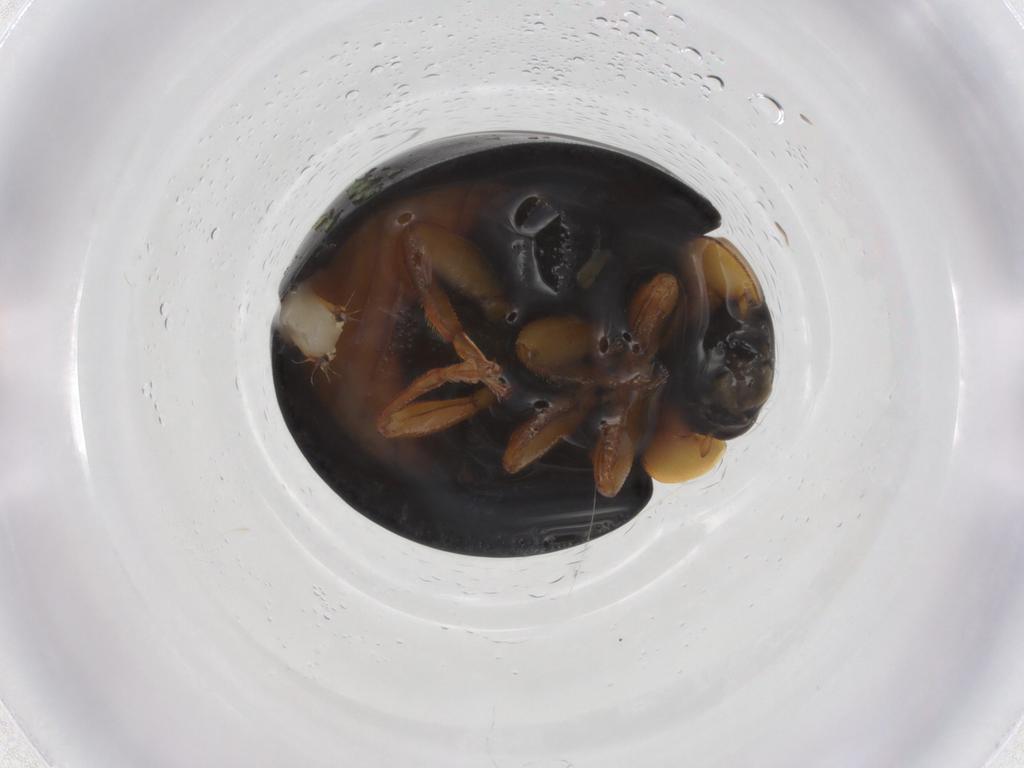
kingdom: Animalia
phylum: Arthropoda
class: Insecta
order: Coleoptera
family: Coccinellidae
